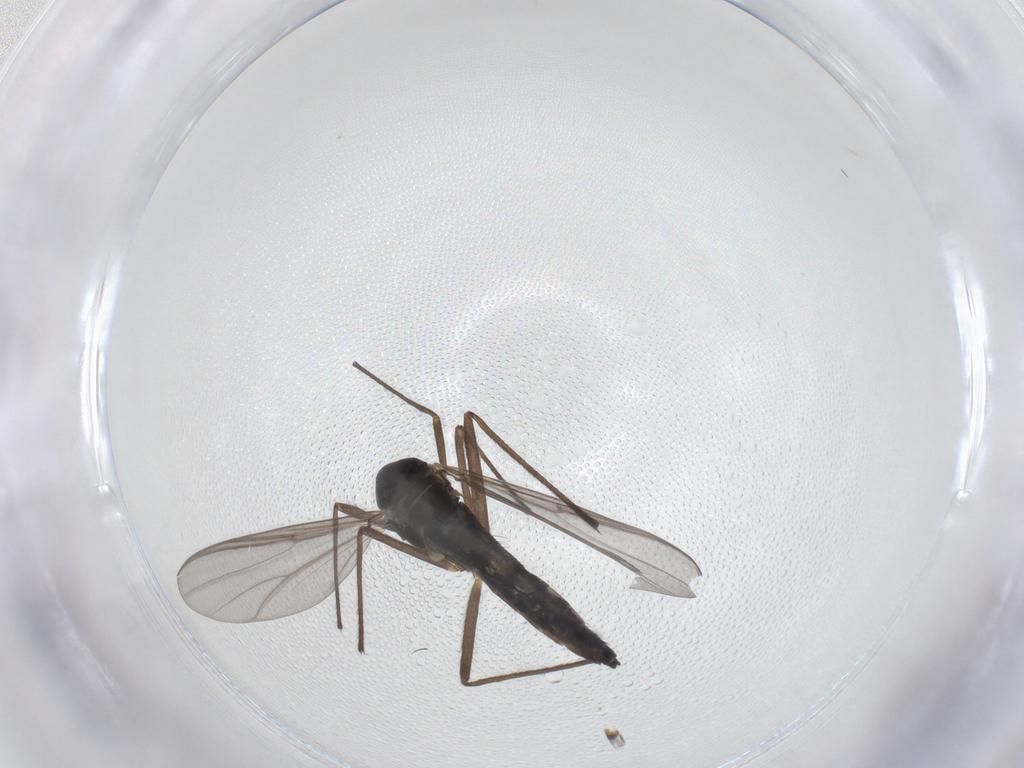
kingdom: Animalia
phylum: Arthropoda
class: Insecta
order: Diptera
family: Chironomidae
